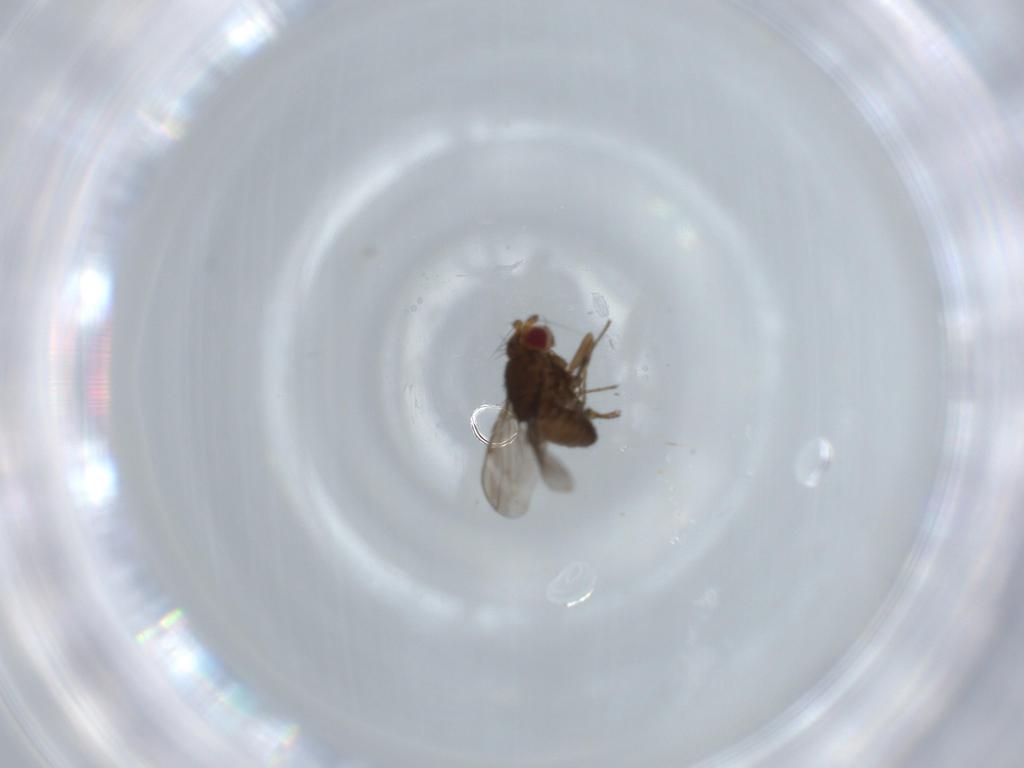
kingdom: Animalia
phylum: Arthropoda
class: Insecta
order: Diptera
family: Sphaeroceridae
